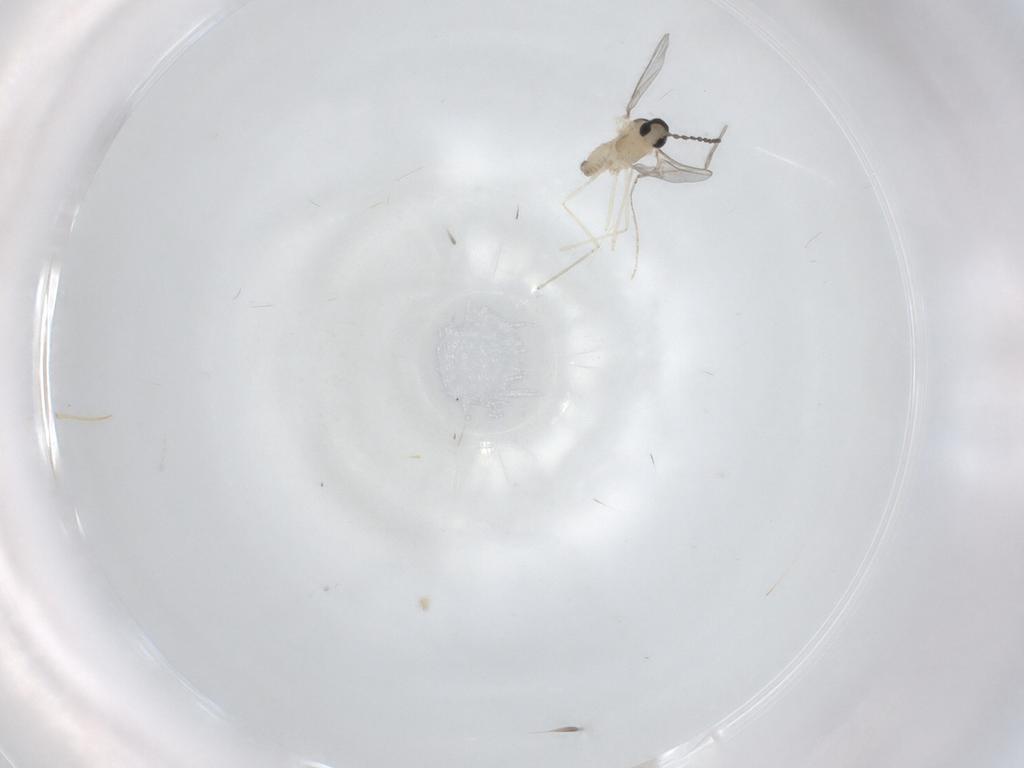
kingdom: Animalia
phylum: Arthropoda
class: Insecta
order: Diptera
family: Cecidomyiidae
